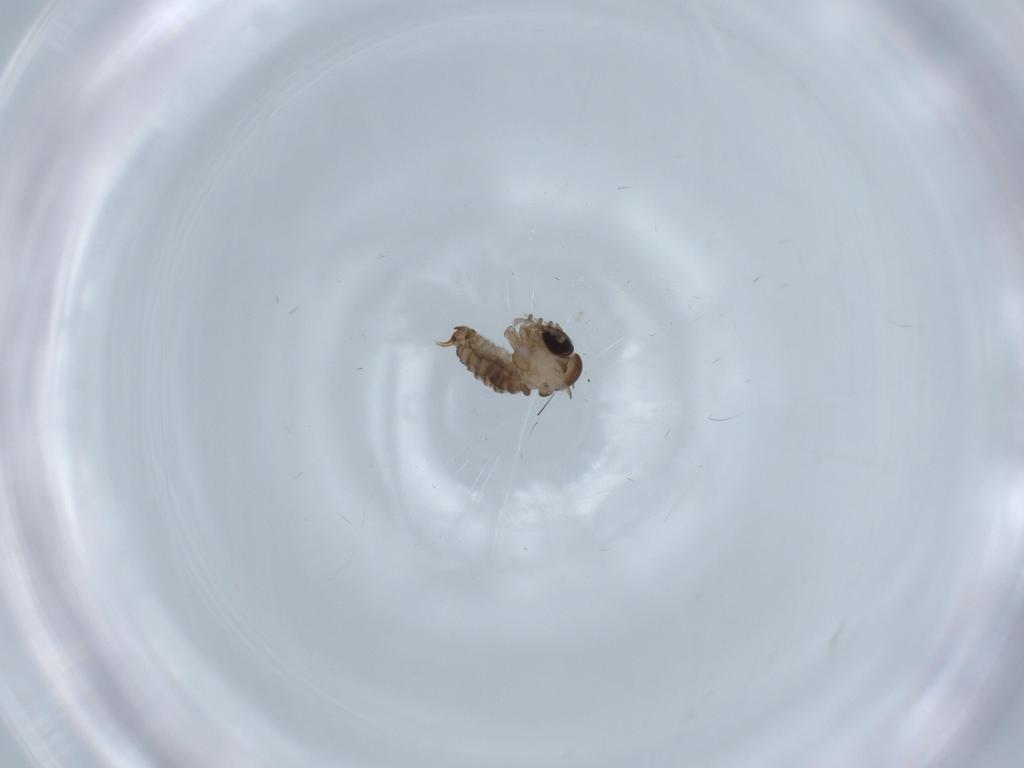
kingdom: Animalia
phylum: Arthropoda
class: Insecta
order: Diptera
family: Psychodidae
